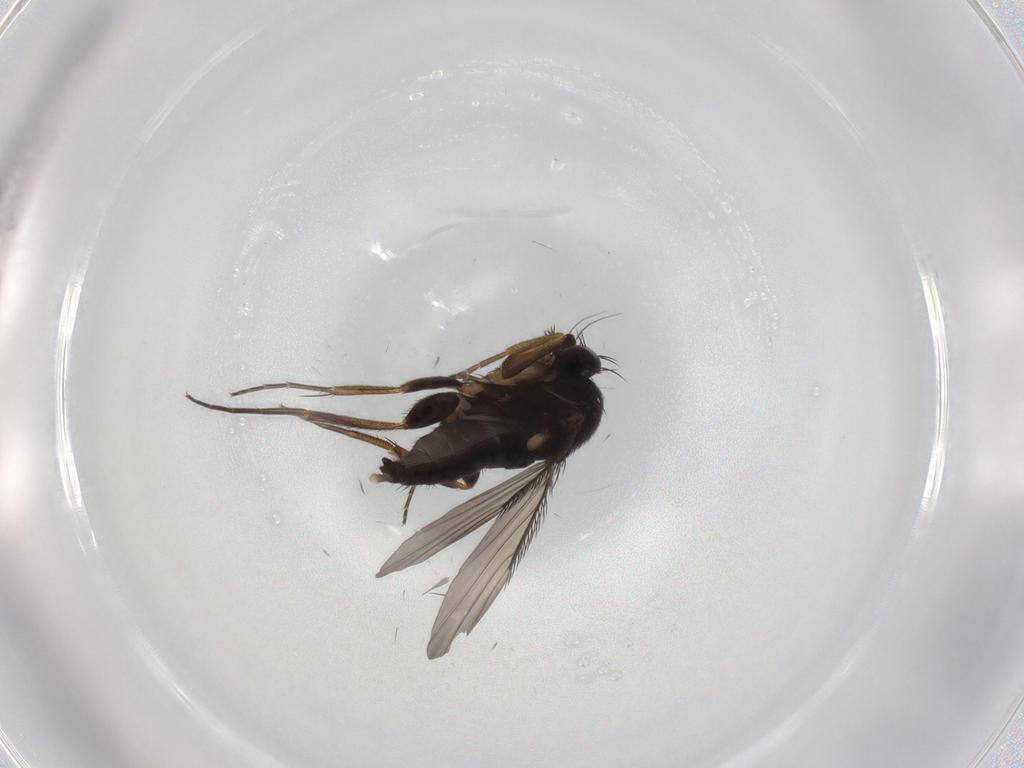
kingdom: Animalia
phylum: Arthropoda
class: Insecta
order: Diptera
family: Phoridae
